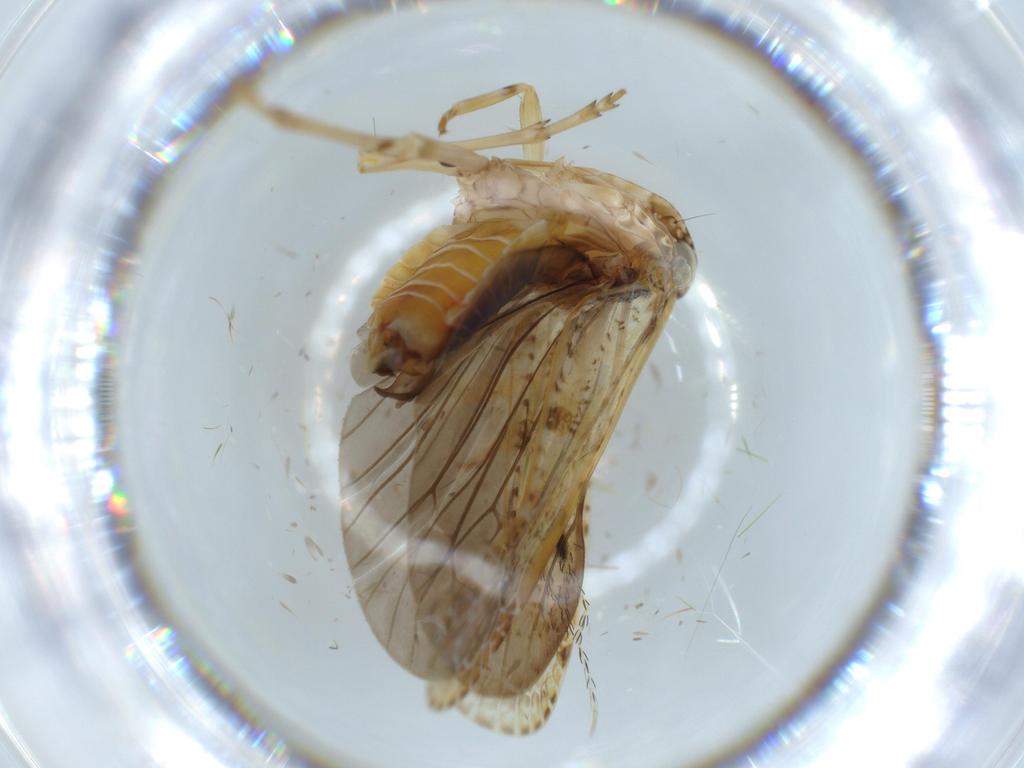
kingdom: Animalia
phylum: Arthropoda
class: Insecta
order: Hemiptera
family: Achilidae
